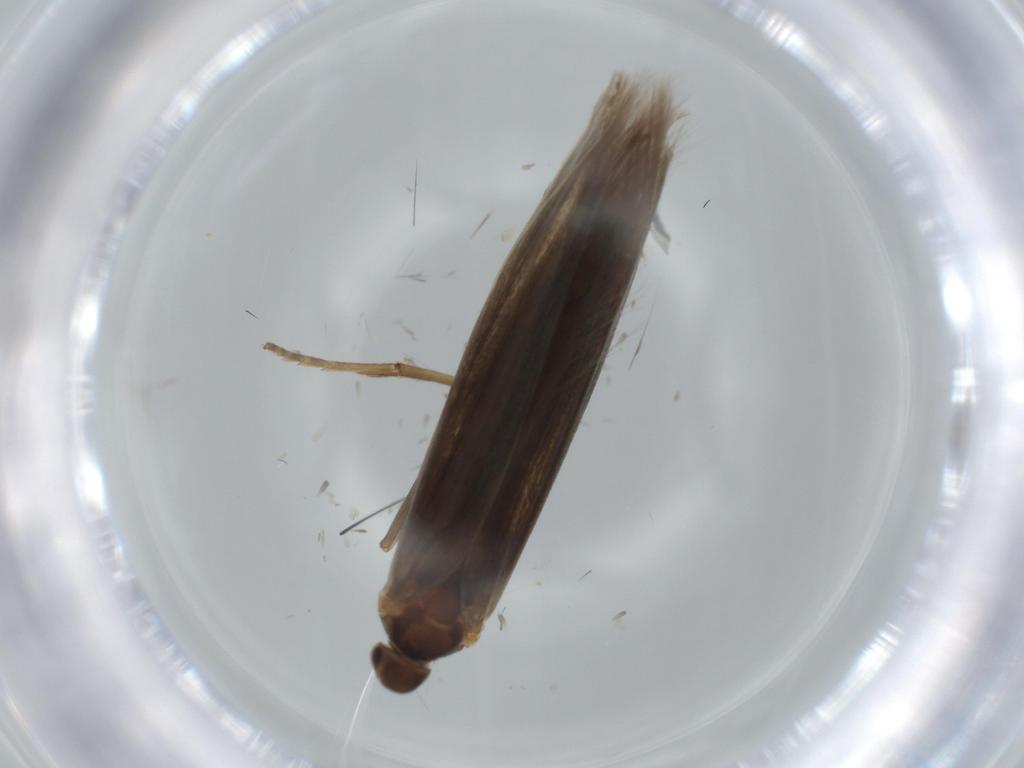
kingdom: Animalia
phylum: Arthropoda
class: Insecta
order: Lepidoptera
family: Coleophoridae
